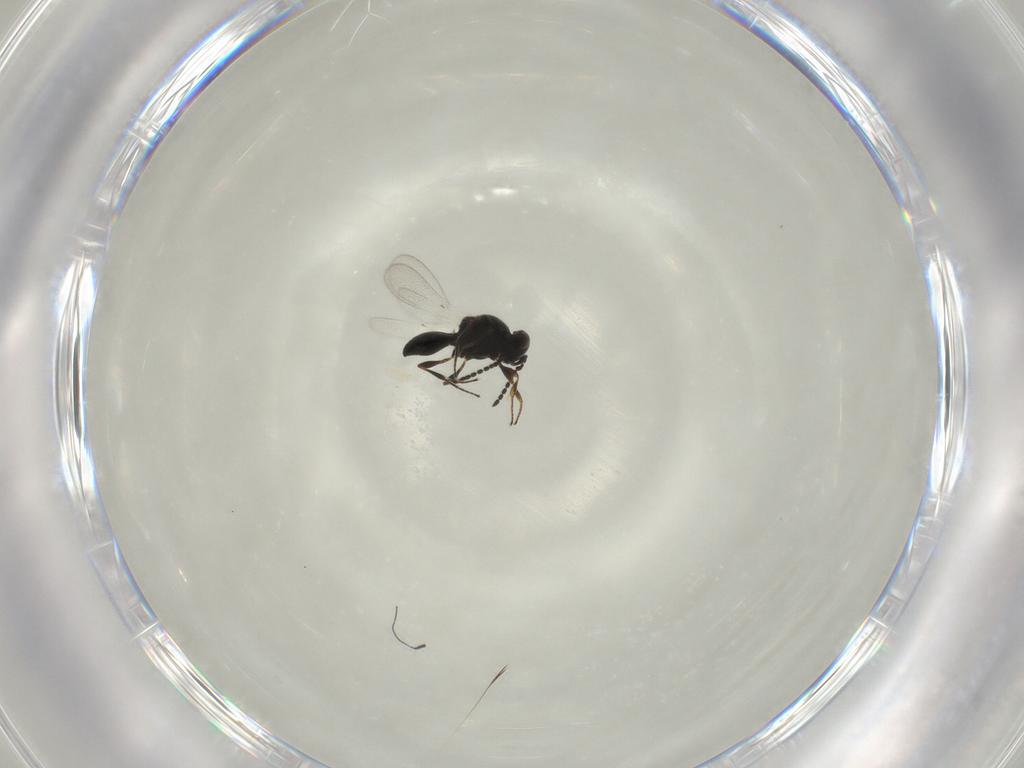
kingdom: Animalia
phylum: Arthropoda
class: Insecta
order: Hymenoptera
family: Platygastridae
